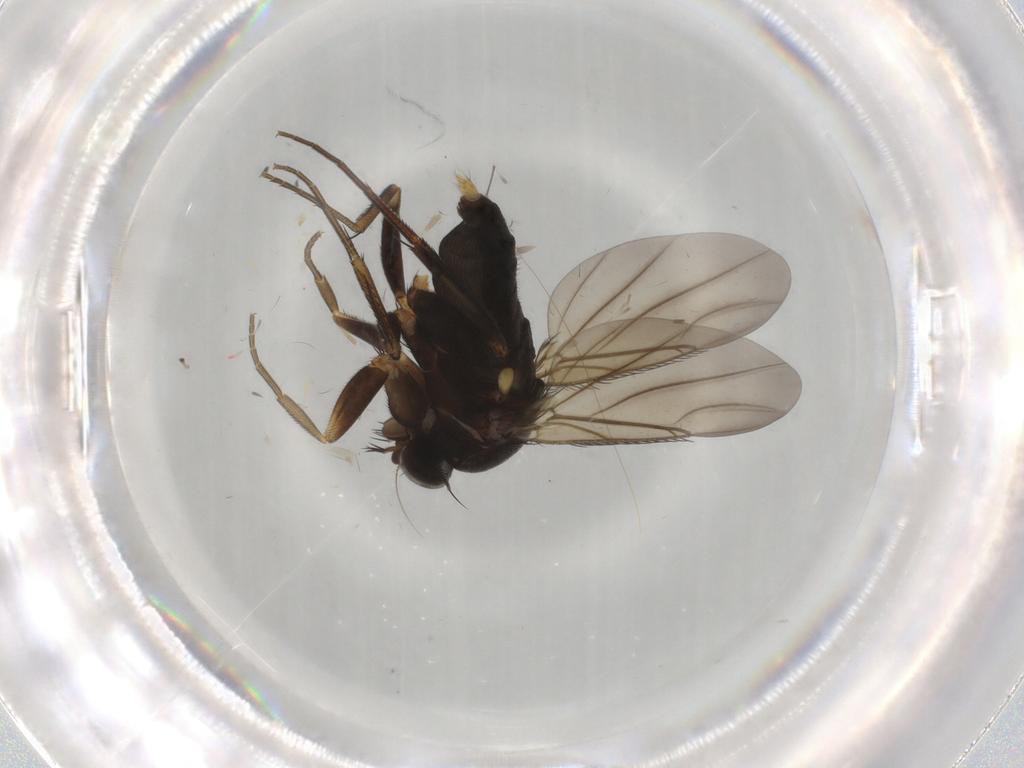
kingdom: Animalia
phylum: Arthropoda
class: Insecta
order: Diptera
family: Phoridae
